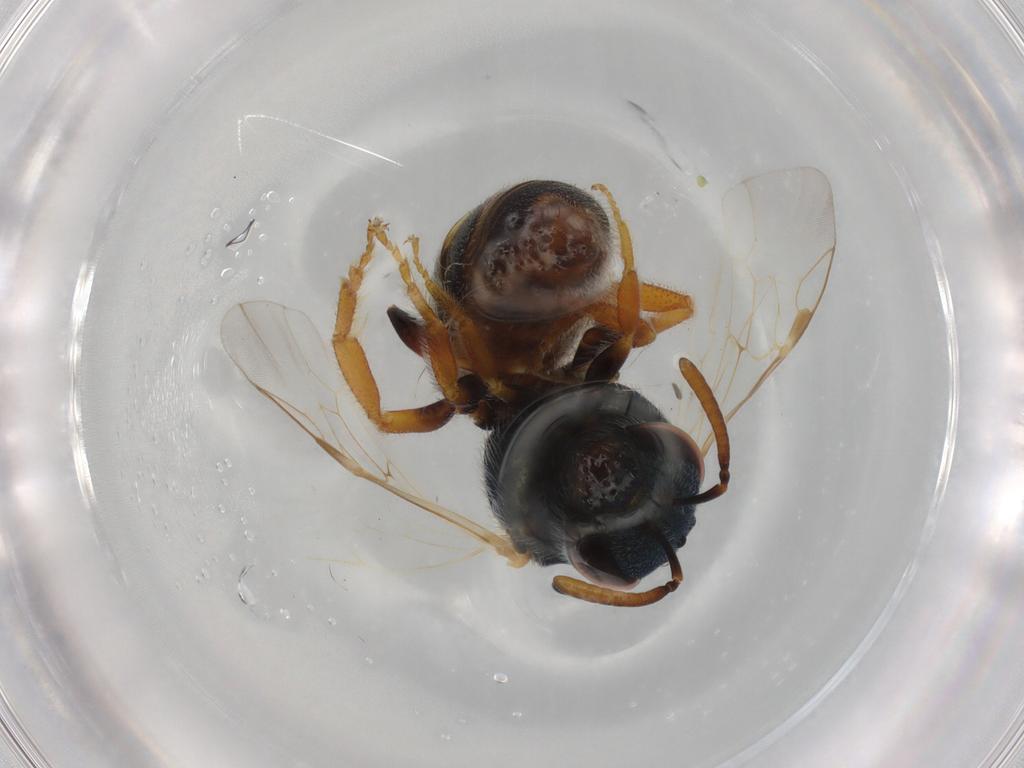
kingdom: Animalia
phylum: Arthropoda
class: Insecta
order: Hymenoptera
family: Halictidae
